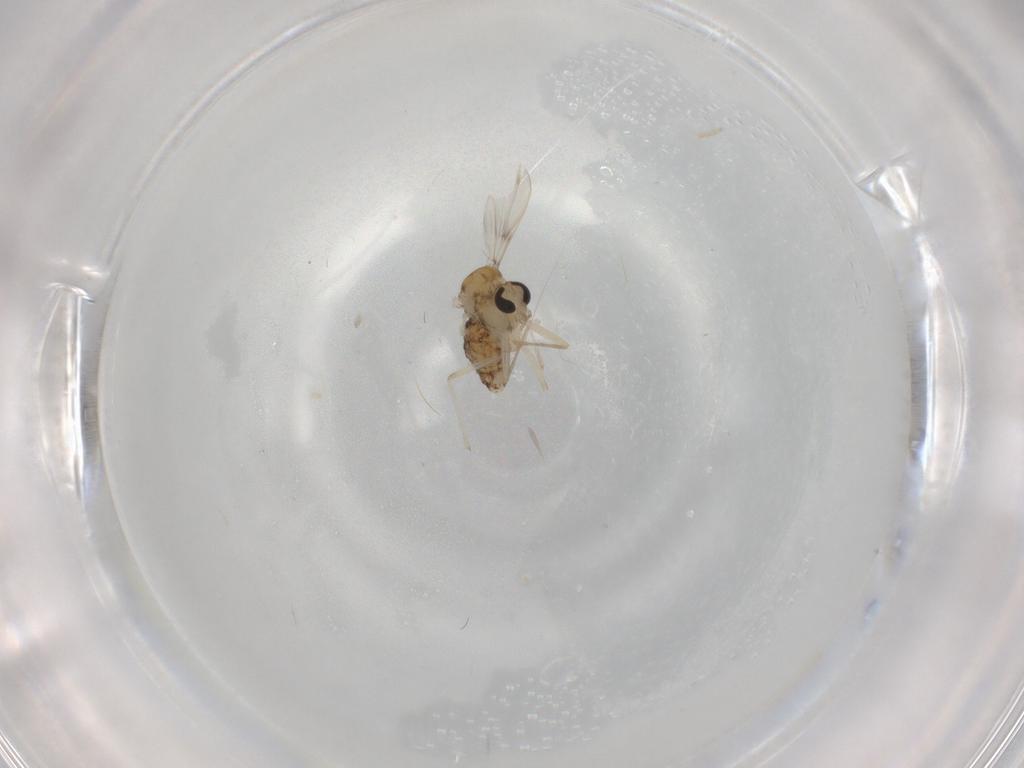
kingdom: Animalia
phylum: Arthropoda
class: Insecta
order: Diptera
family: Chironomidae
